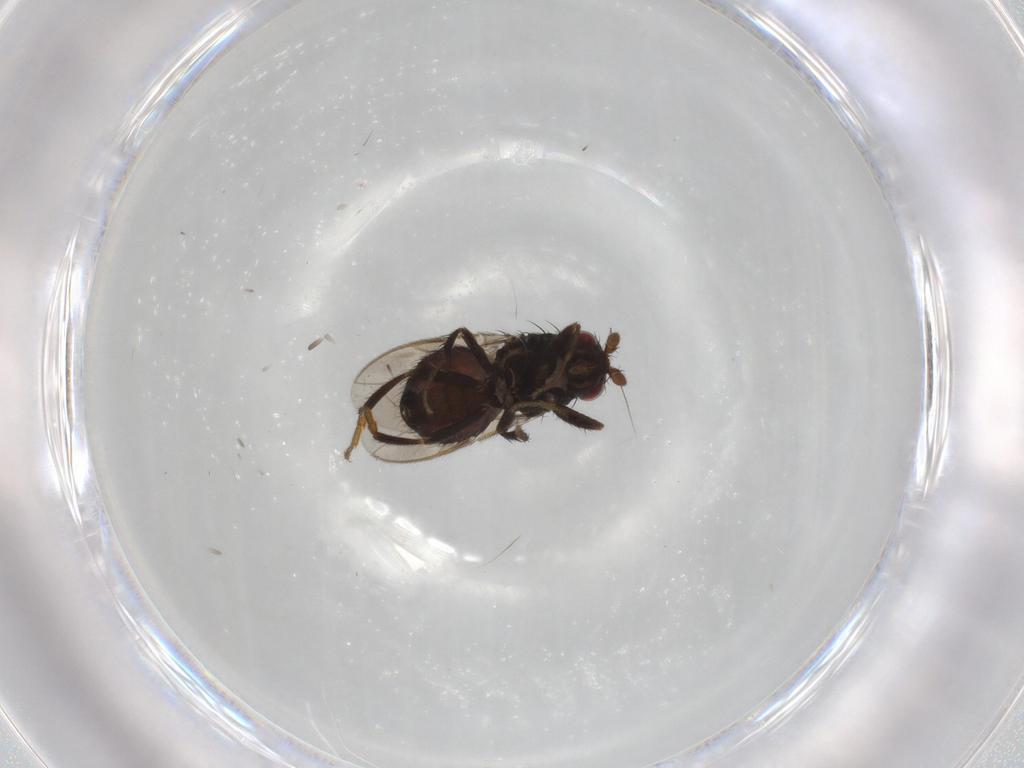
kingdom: Animalia
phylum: Arthropoda
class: Insecta
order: Diptera
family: Sphaeroceridae
